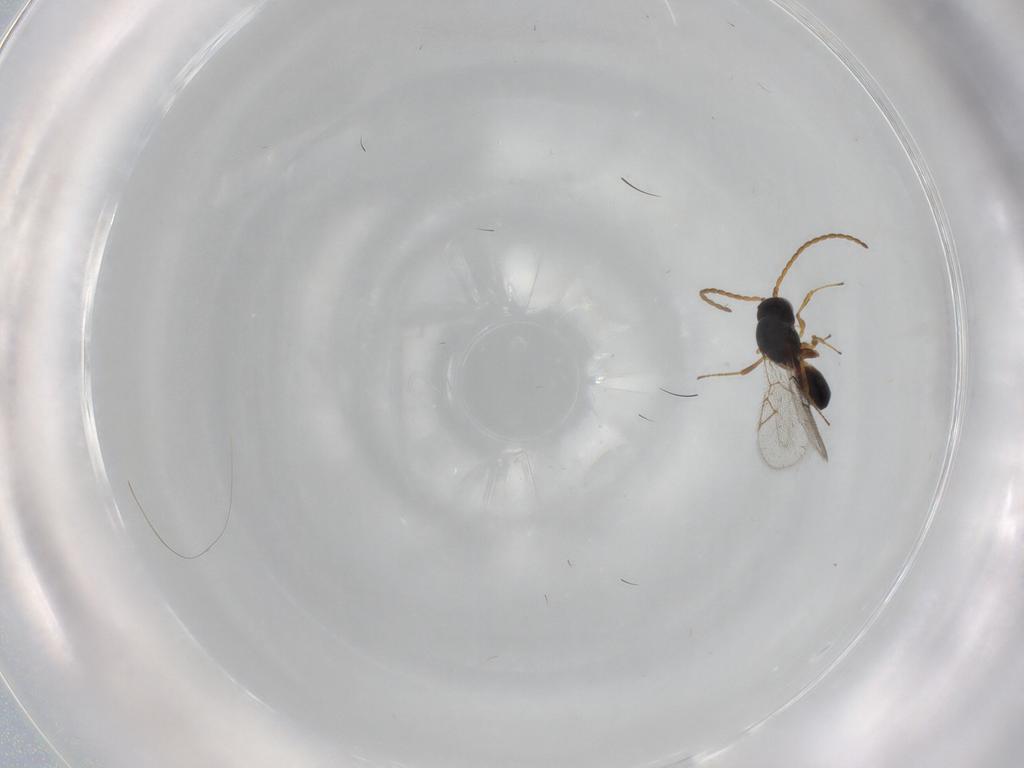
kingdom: Animalia
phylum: Arthropoda
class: Insecta
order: Hymenoptera
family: Figitidae
